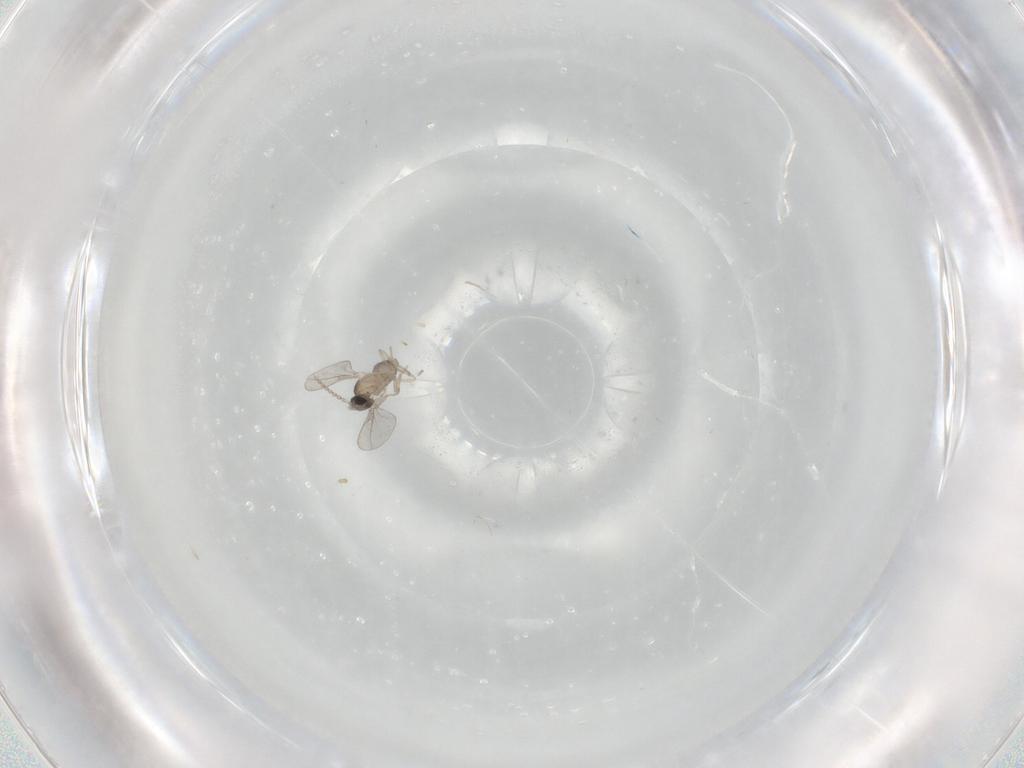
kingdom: Animalia
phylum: Arthropoda
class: Insecta
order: Diptera
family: Cecidomyiidae
